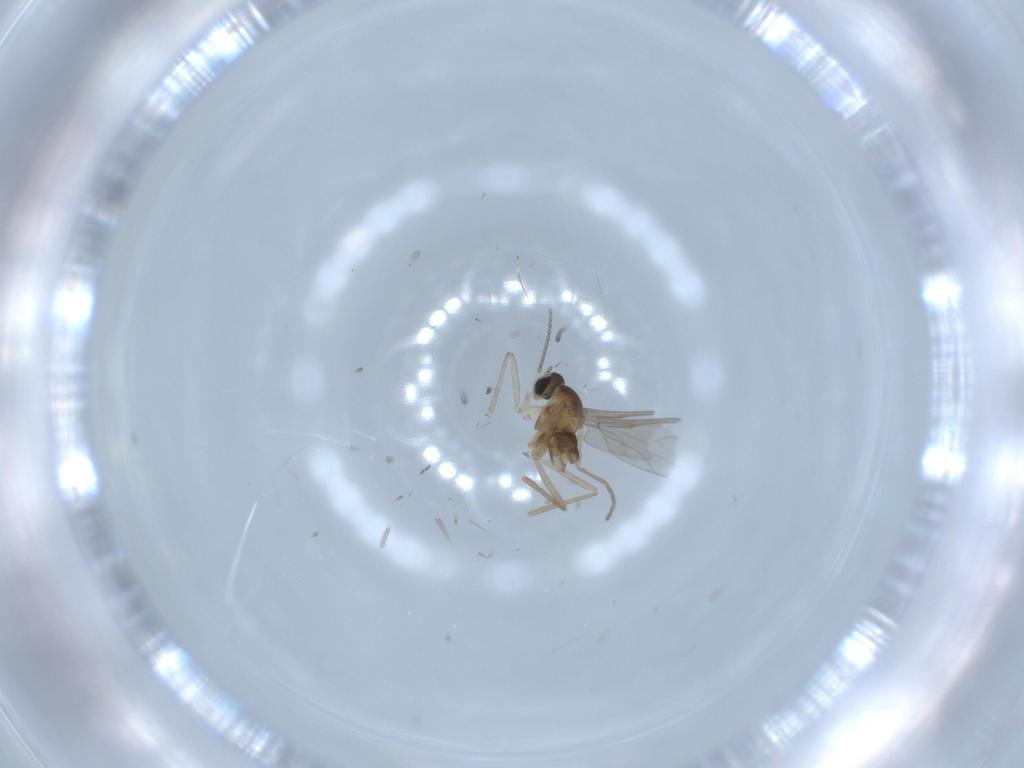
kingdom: Animalia
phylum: Arthropoda
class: Insecta
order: Diptera
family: Cecidomyiidae
